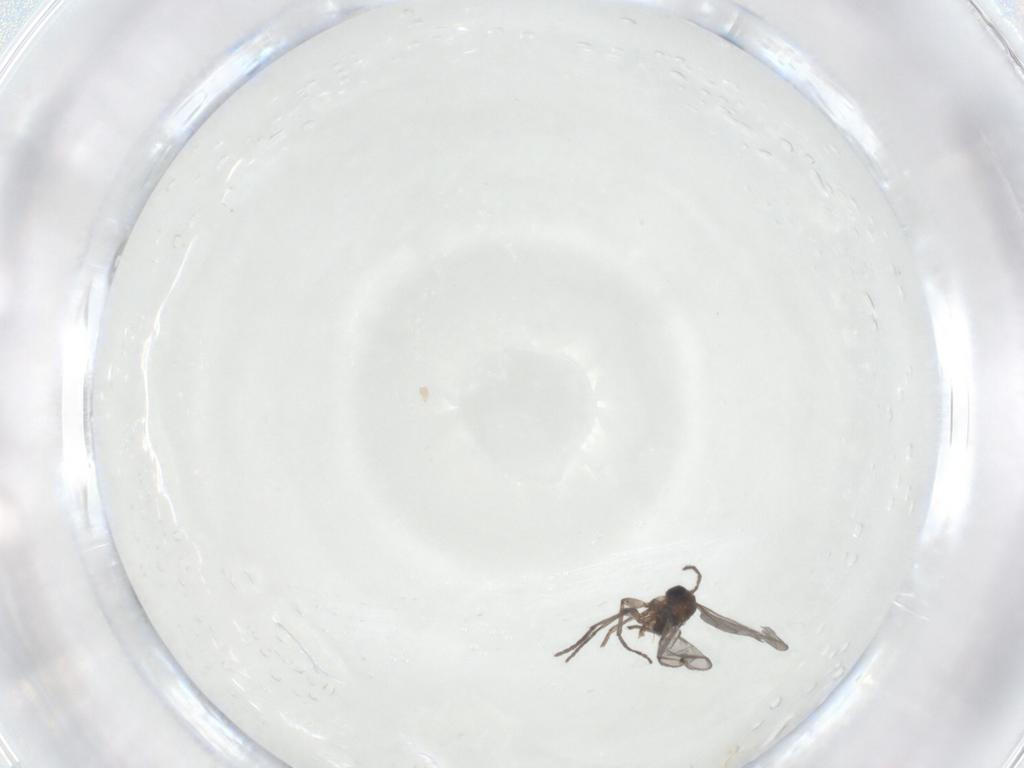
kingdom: Animalia
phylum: Arthropoda
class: Insecta
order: Diptera
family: Sciaridae
